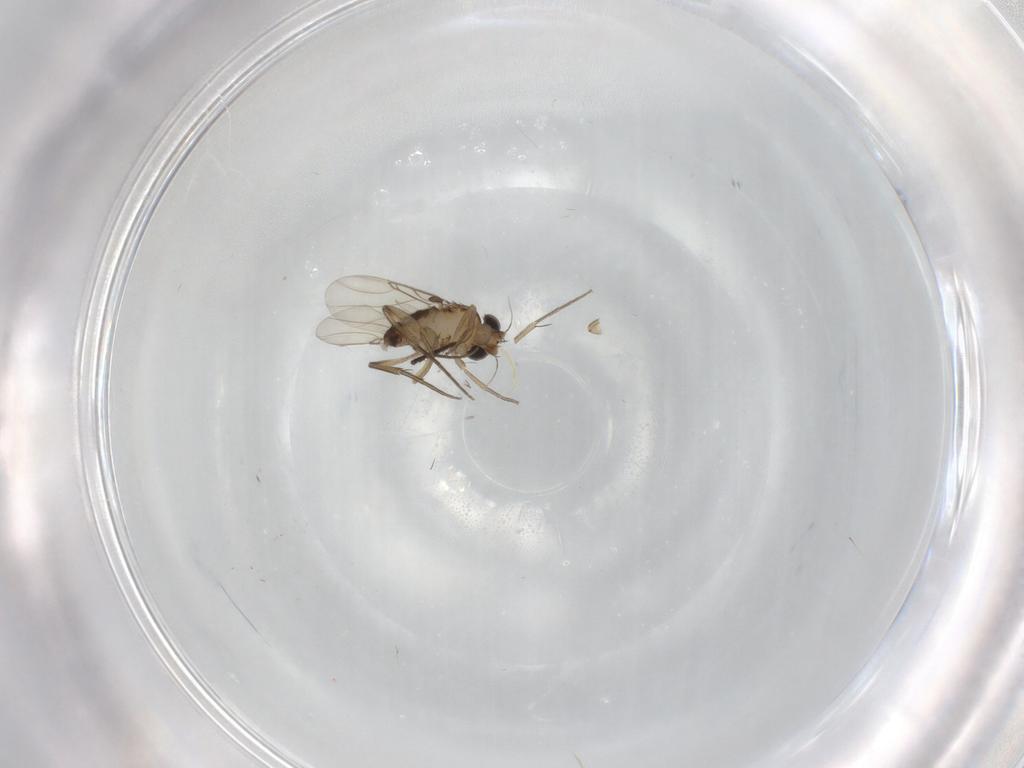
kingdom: Animalia
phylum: Arthropoda
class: Insecta
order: Diptera
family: Phoridae
